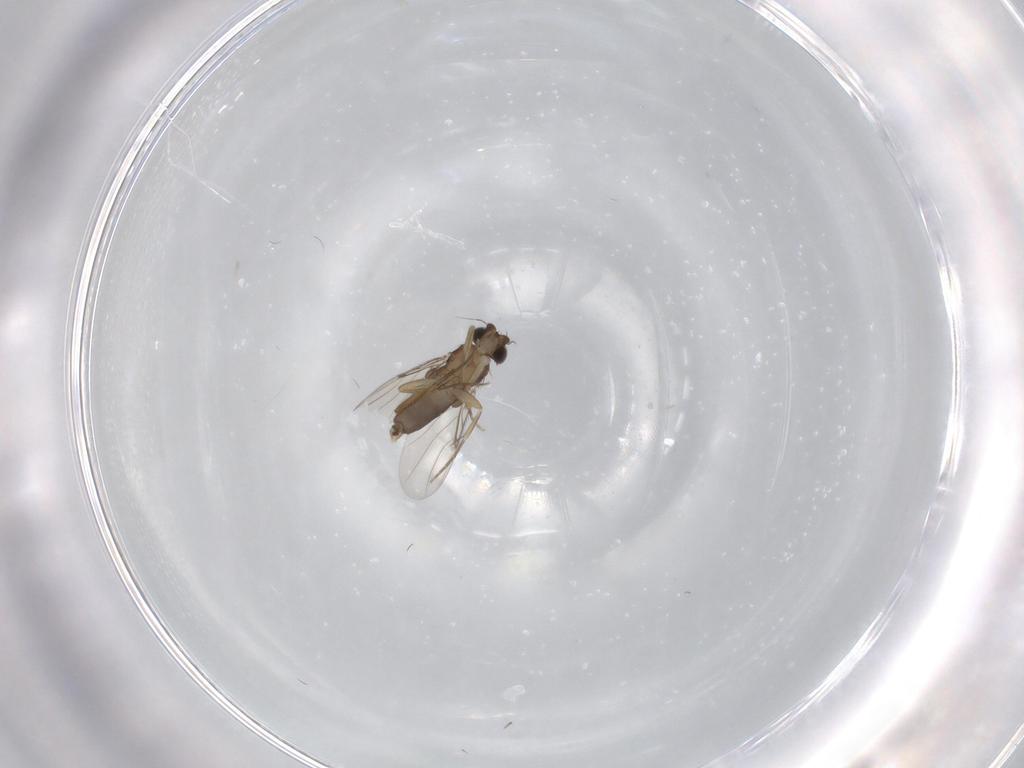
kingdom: Animalia
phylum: Arthropoda
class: Insecta
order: Diptera
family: Phoridae
